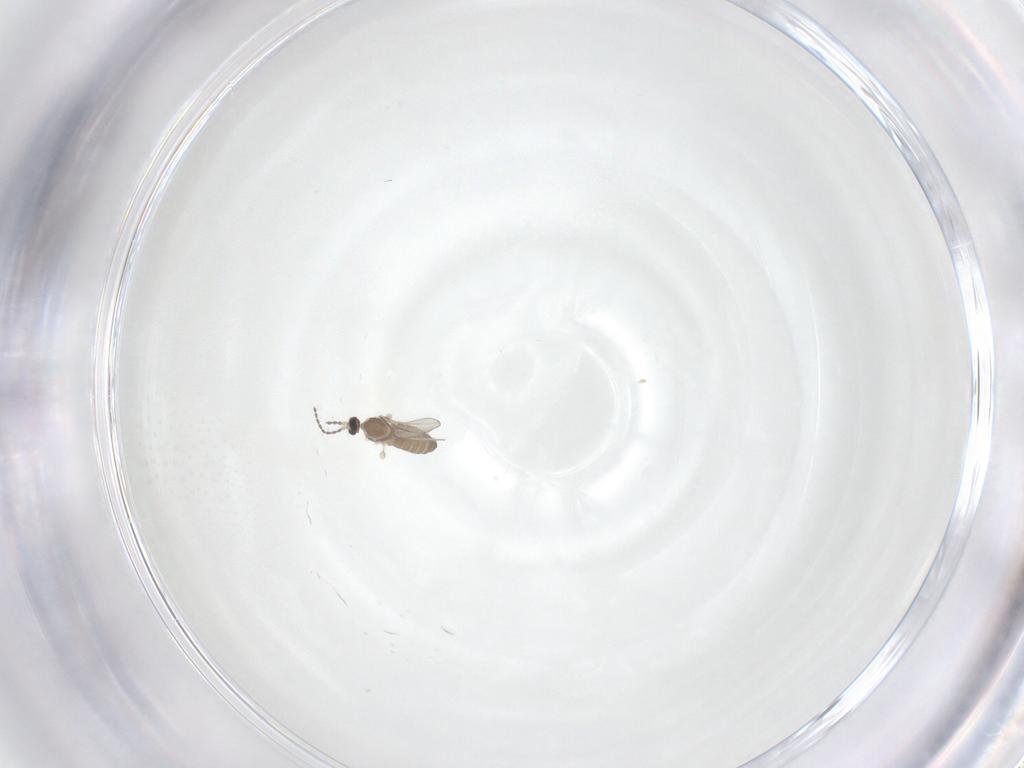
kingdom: Animalia
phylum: Arthropoda
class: Insecta
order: Diptera
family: Cecidomyiidae
